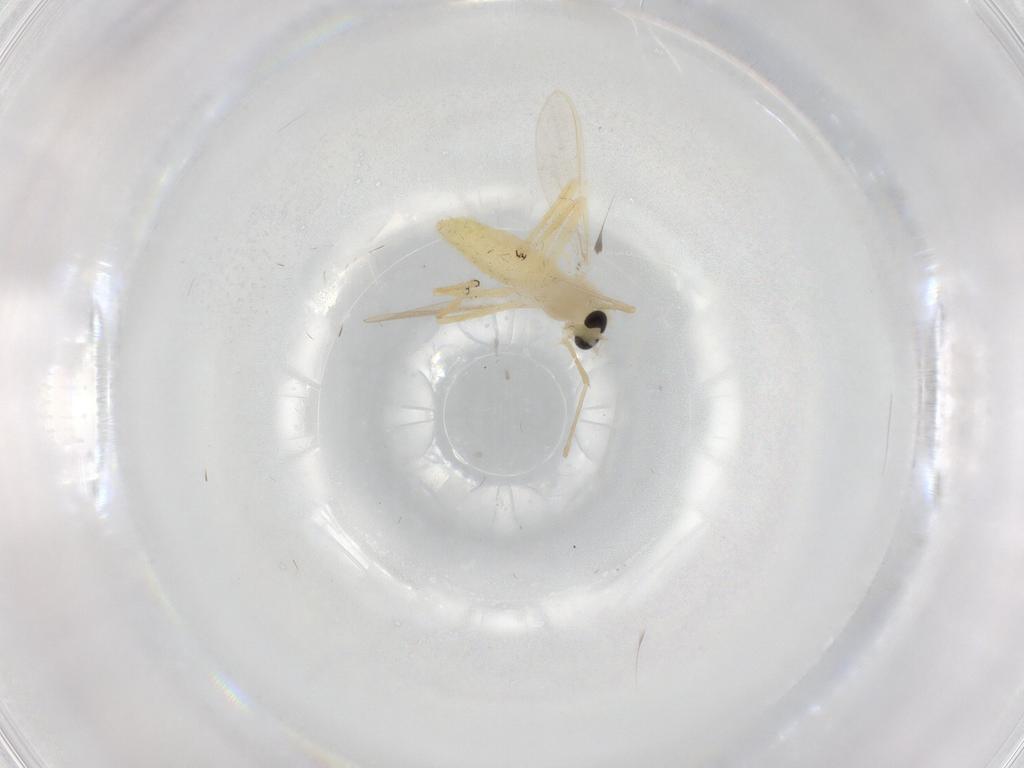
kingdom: Animalia
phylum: Arthropoda
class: Insecta
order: Diptera
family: Chironomidae
